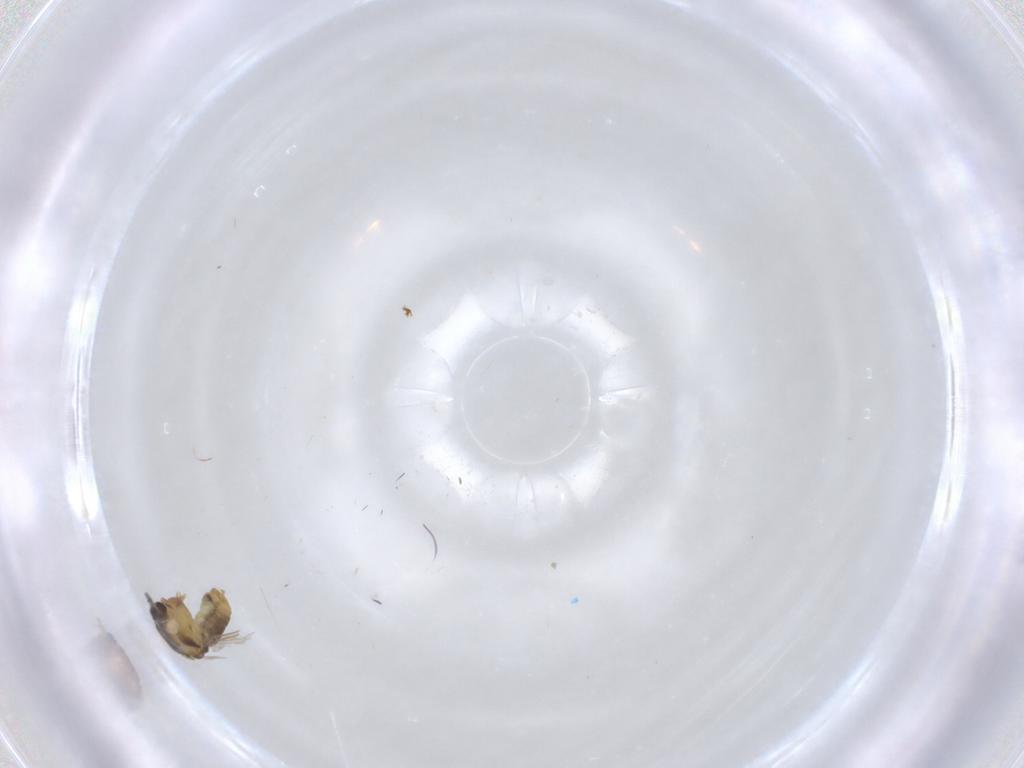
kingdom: Animalia
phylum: Arthropoda
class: Insecta
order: Diptera
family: Chironomidae
